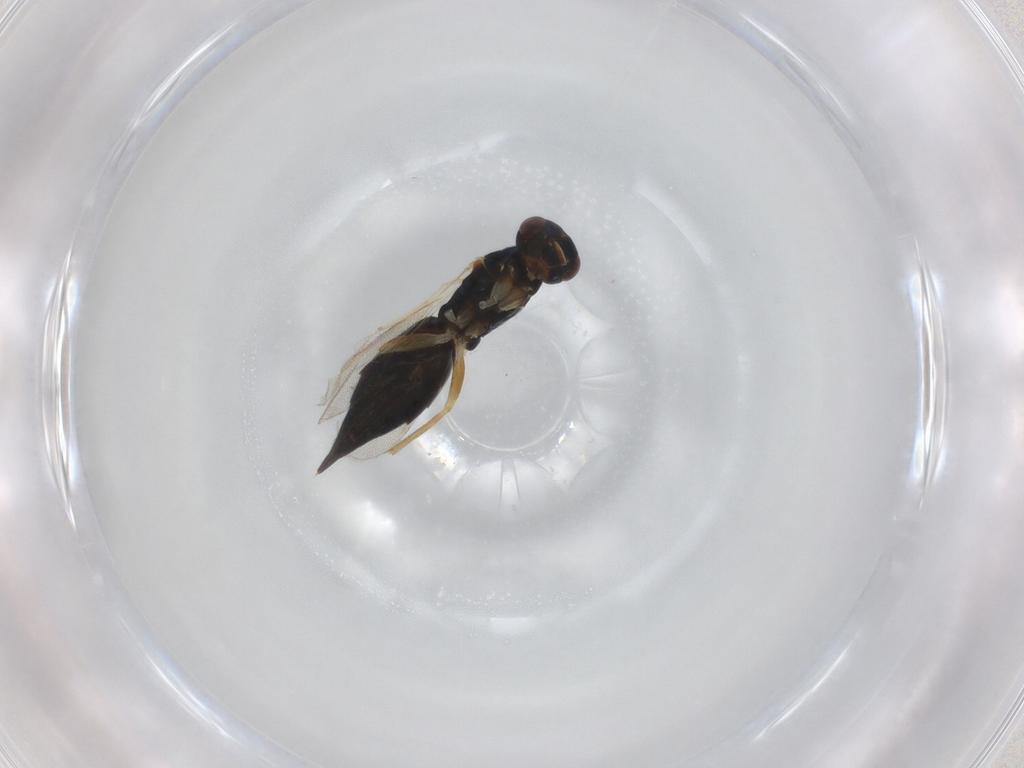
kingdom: Animalia
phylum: Arthropoda
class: Insecta
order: Hymenoptera
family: Eulophidae
